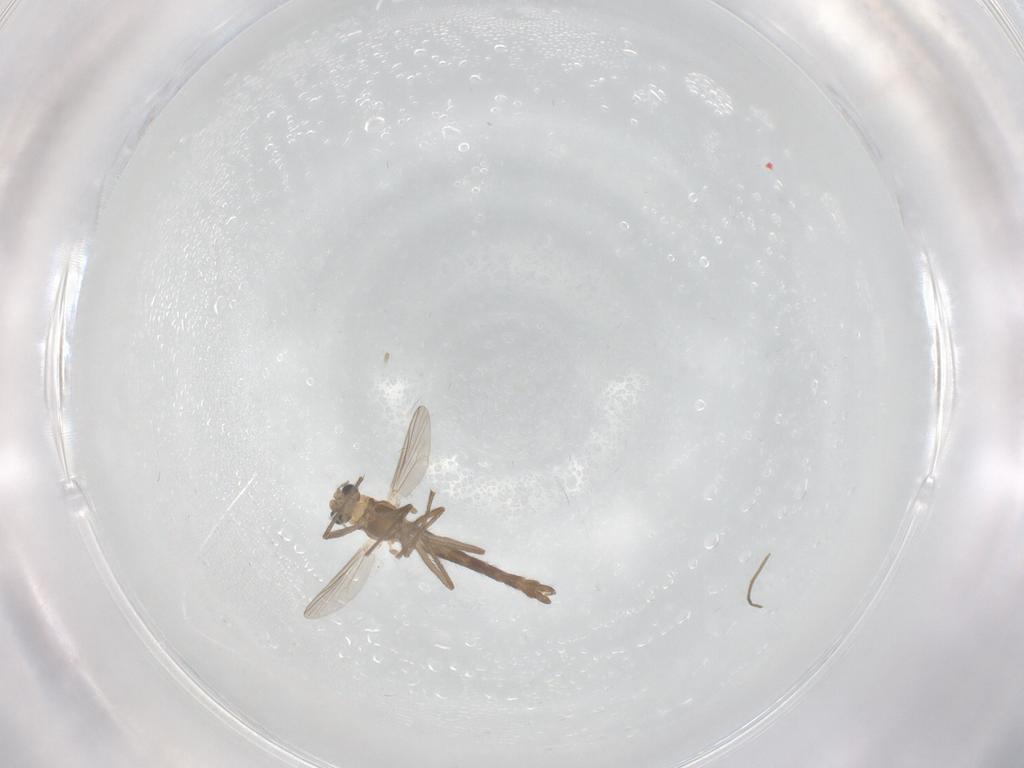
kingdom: Animalia
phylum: Arthropoda
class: Insecta
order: Diptera
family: Chironomidae
